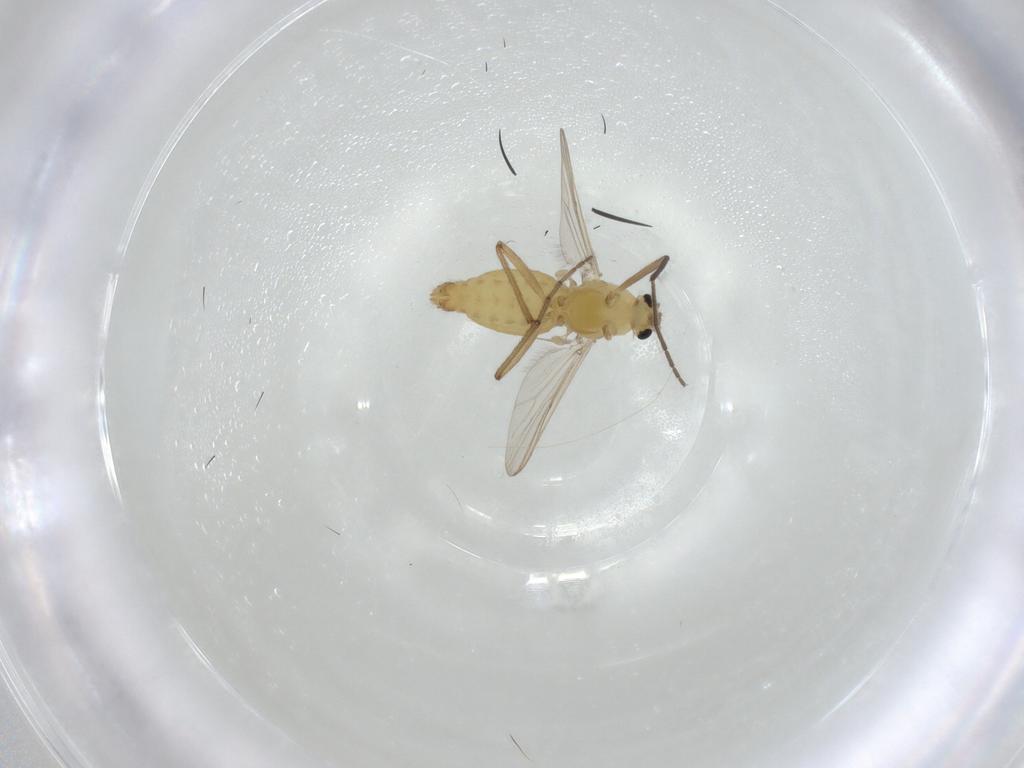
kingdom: Animalia
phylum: Arthropoda
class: Insecta
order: Diptera
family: Chironomidae
